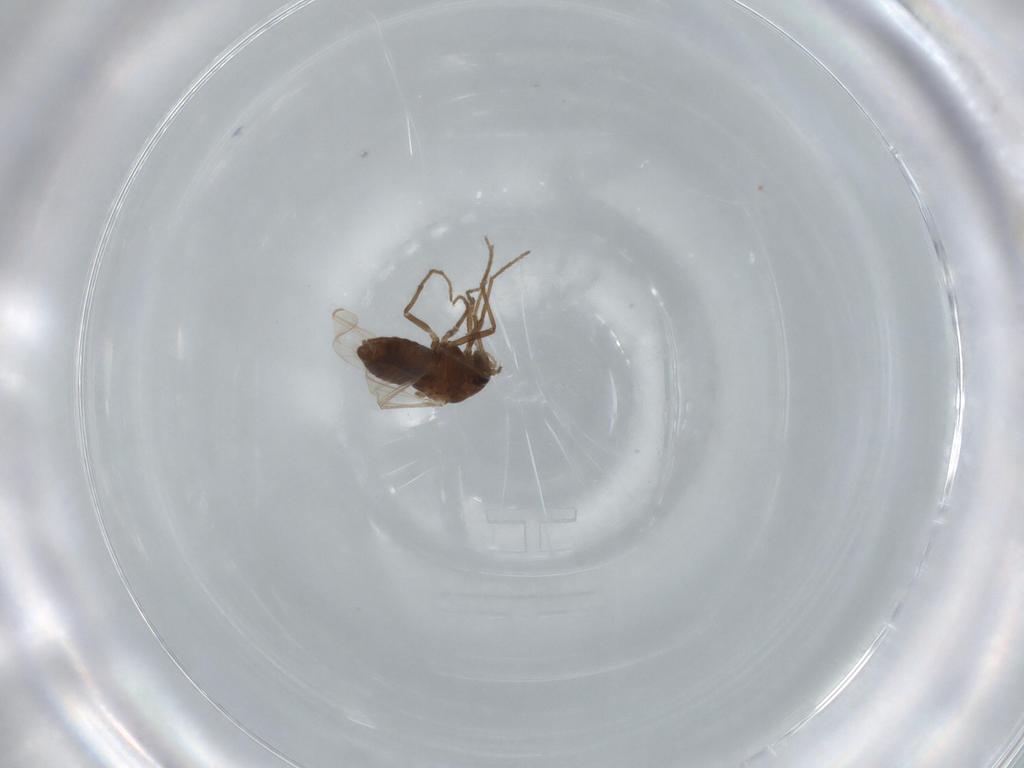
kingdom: Animalia
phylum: Arthropoda
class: Insecta
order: Diptera
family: Chironomidae
